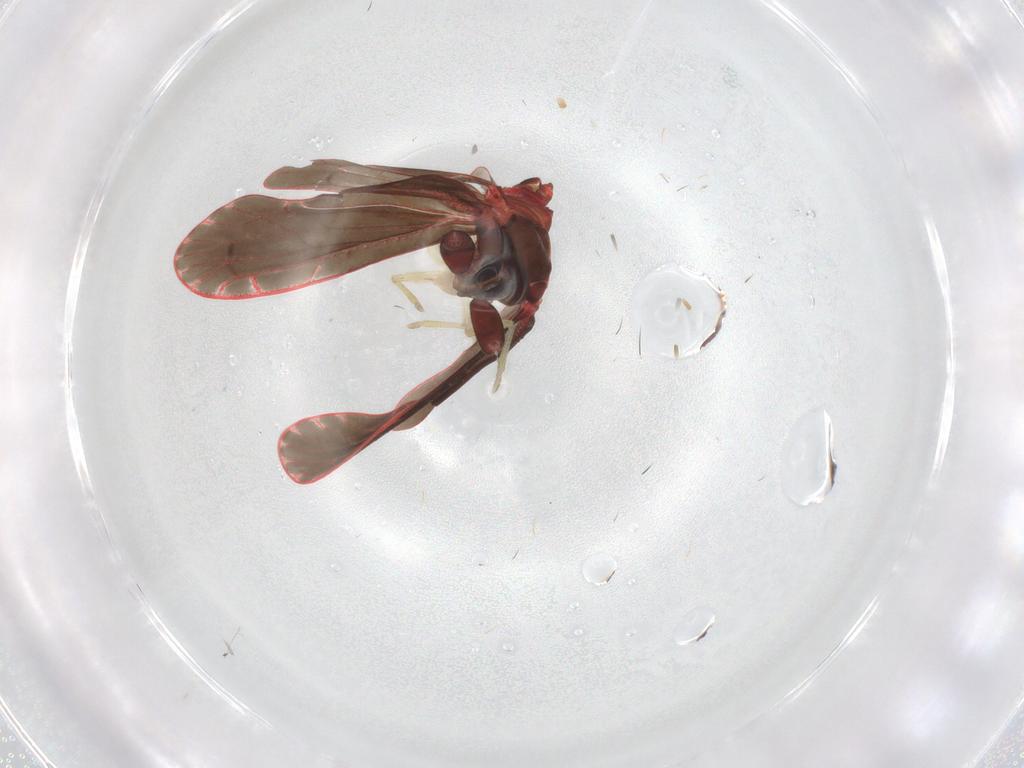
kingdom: Animalia
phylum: Arthropoda
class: Insecta
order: Hemiptera
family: Derbidae
